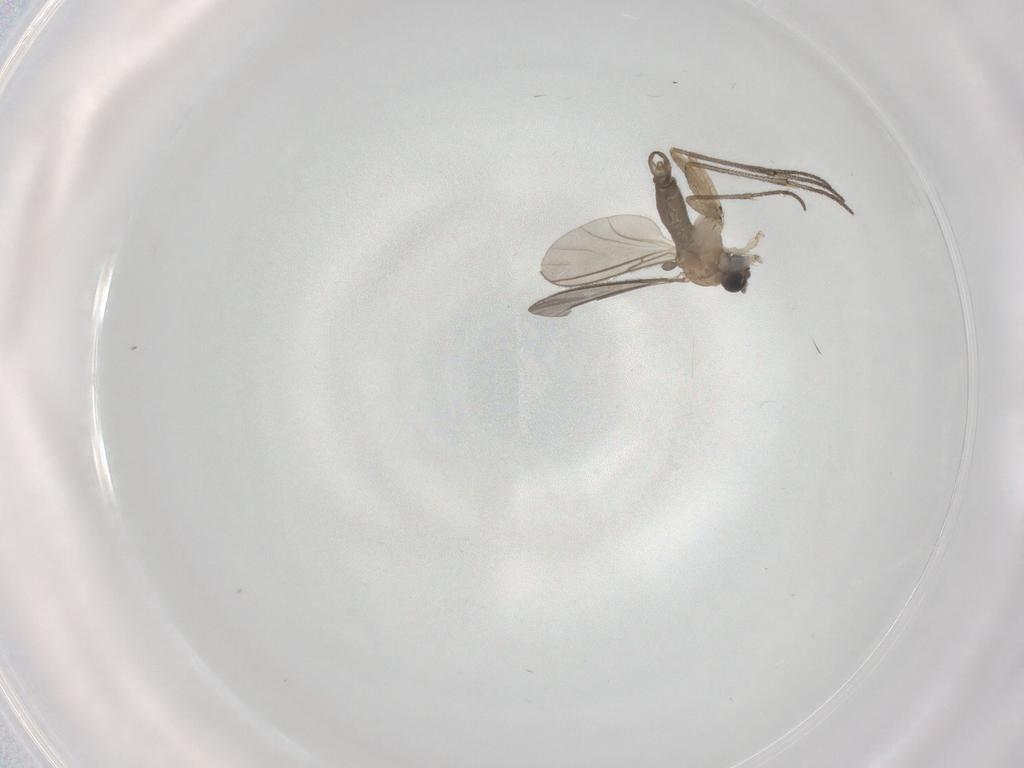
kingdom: Animalia
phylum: Arthropoda
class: Insecta
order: Diptera
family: Sciaridae
